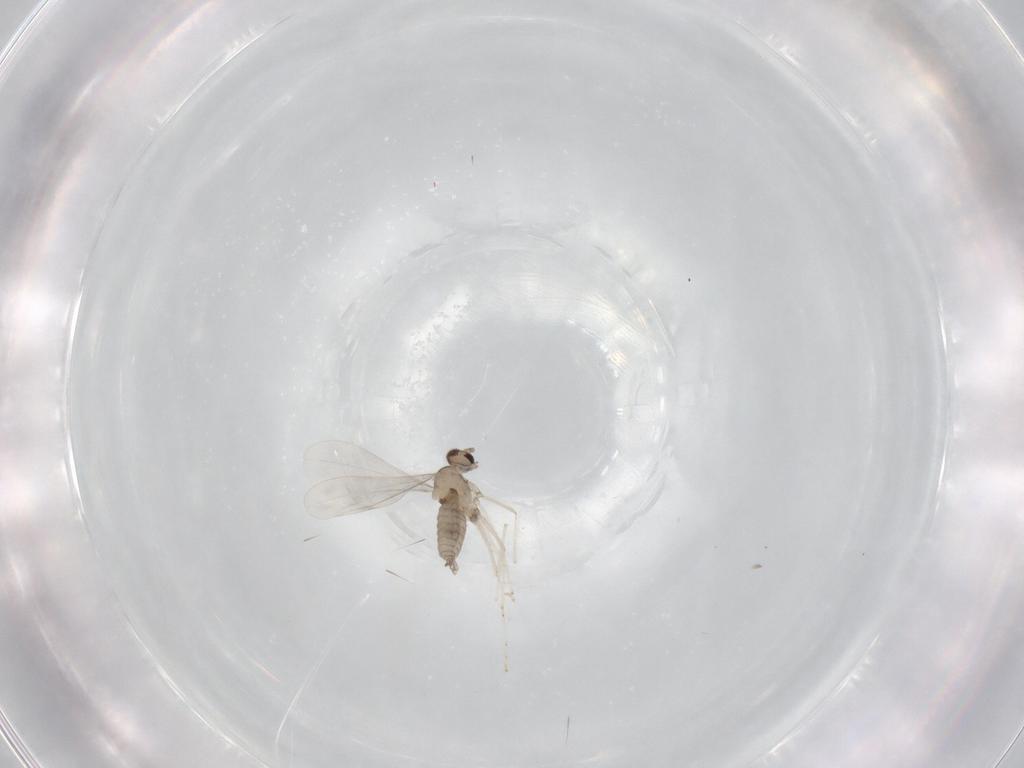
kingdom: Animalia
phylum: Arthropoda
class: Insecta
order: Diptera
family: Cecidomyiidae
